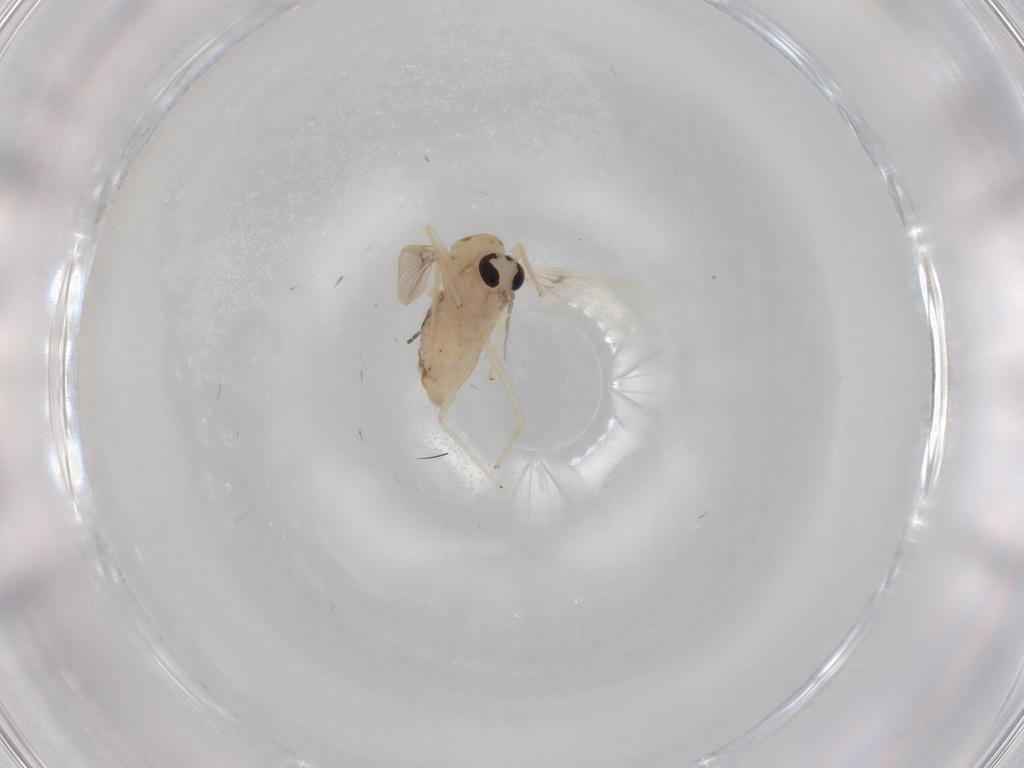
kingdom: Animalia
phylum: Arthropoda
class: Insecta
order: Diptera
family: Chironomidae
